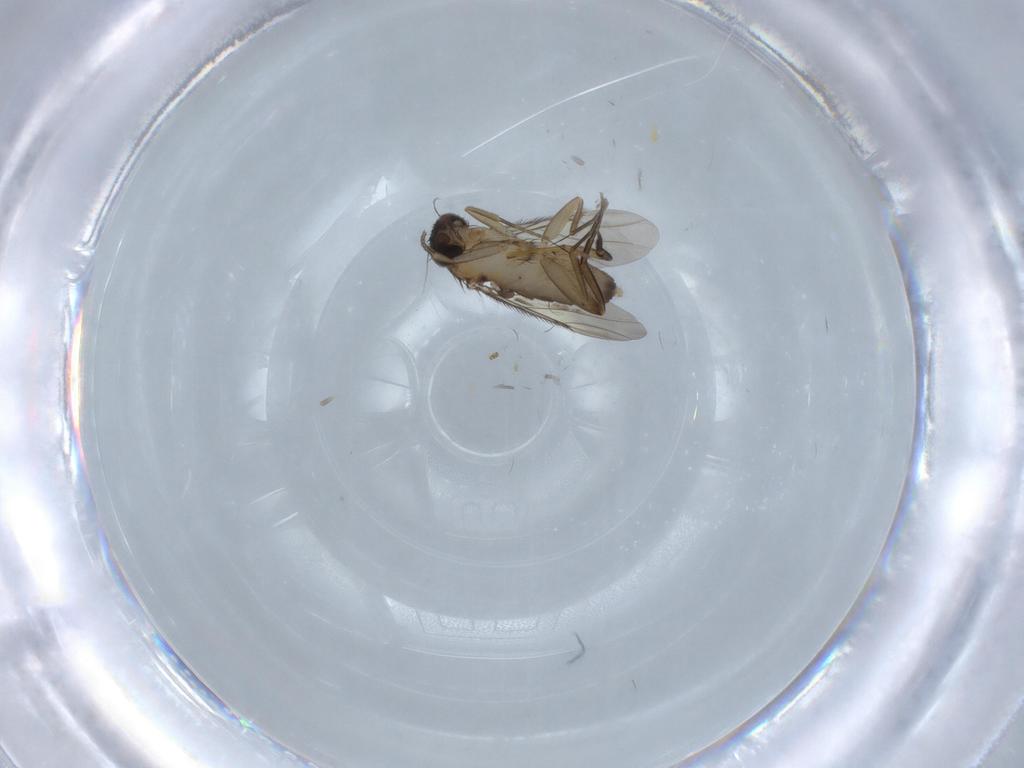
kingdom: Animalia
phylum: Arthropoda
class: Insecta
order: Diptera
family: Phoridae
